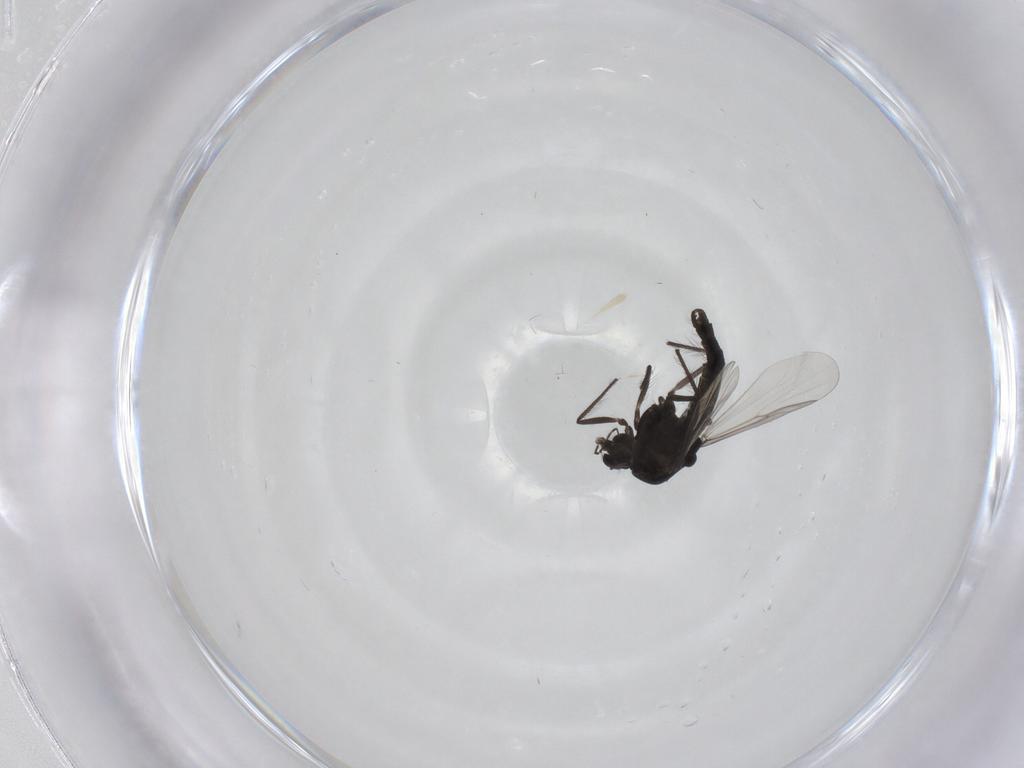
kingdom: Animalia
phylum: Arthropoda
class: Insecta
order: Diptera
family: Chironomidae
